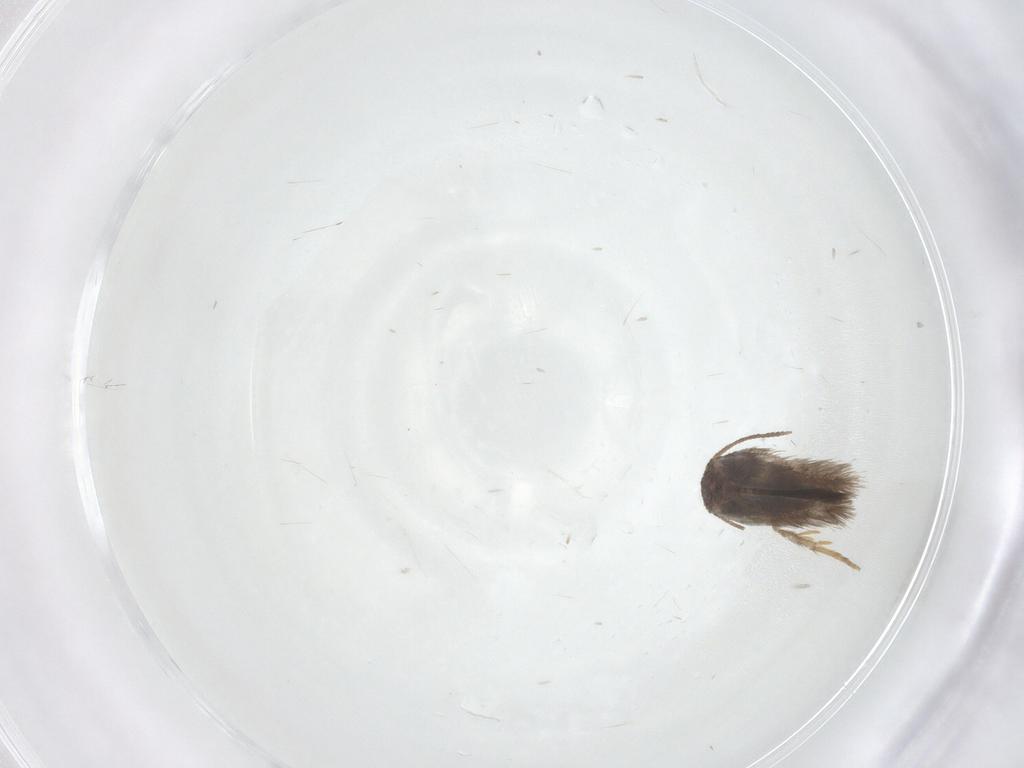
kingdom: Animalia
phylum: Arthropoda
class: Insecta
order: Lepidoptera
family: Nepticulidae
